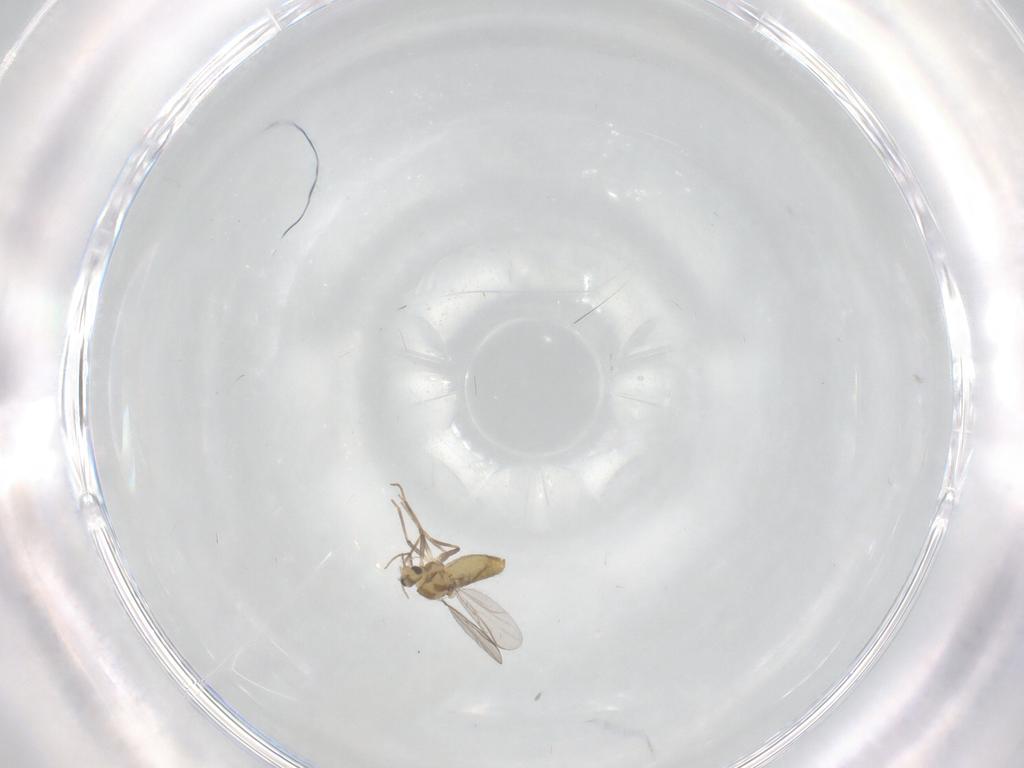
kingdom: Animalia
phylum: Arthropoda
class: Insecta
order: Diptera
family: Chironomidae
